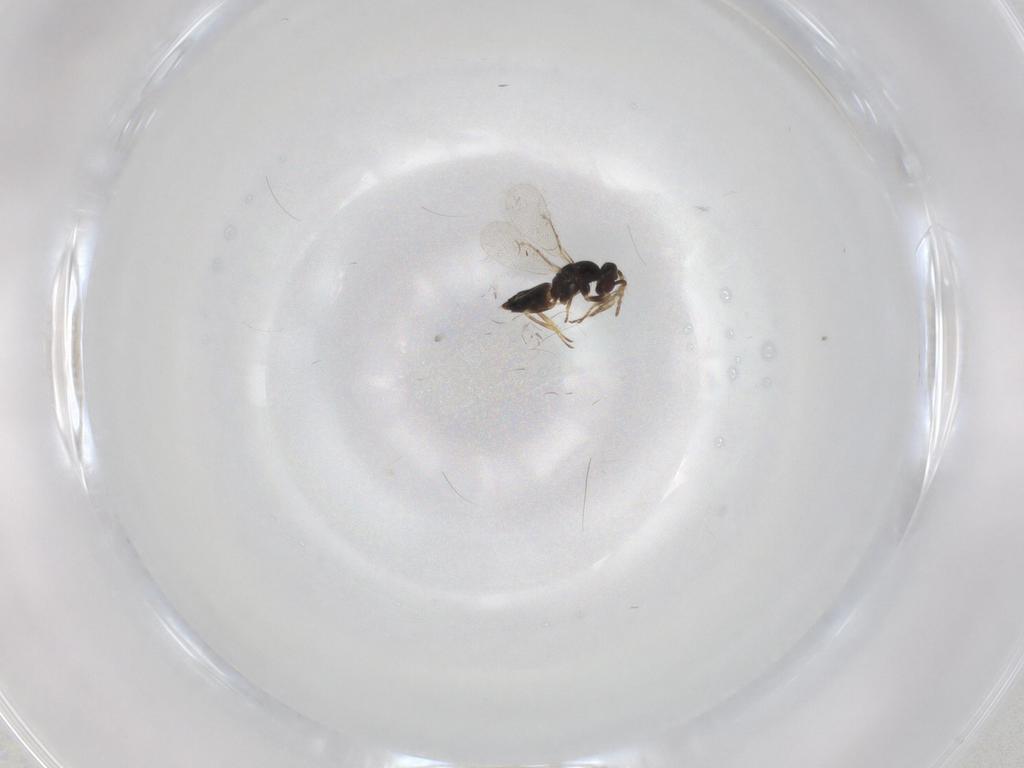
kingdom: Animalia
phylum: Arthropoda
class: Insecta
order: Hymenoptera
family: Eulophidae
